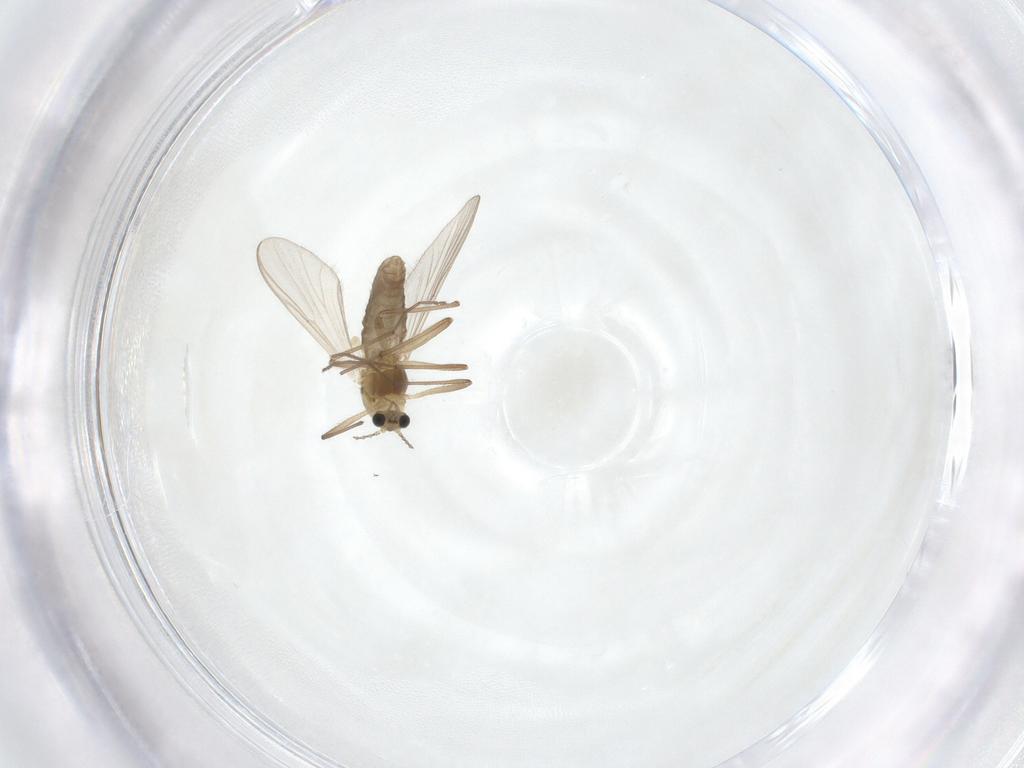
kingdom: Animalia
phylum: Arthropoda
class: Insecta
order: Diptera
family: Chironomidae
